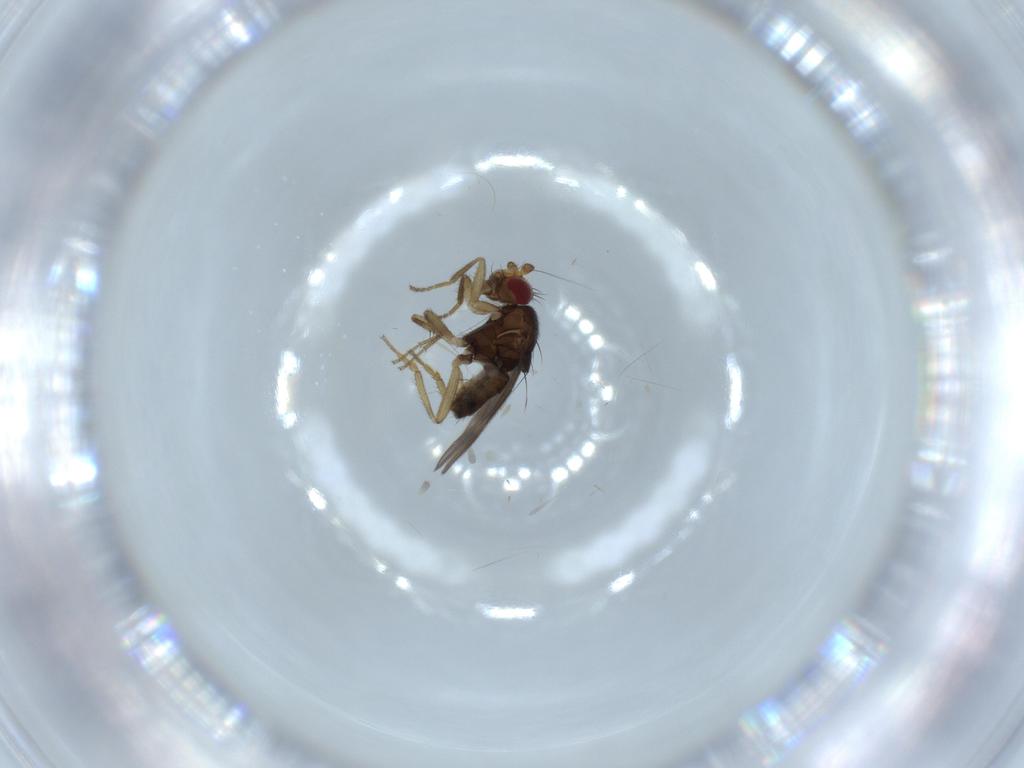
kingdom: Animalia
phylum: Arthropoda
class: Insecta
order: Diptera
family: Sphaeroceridae
